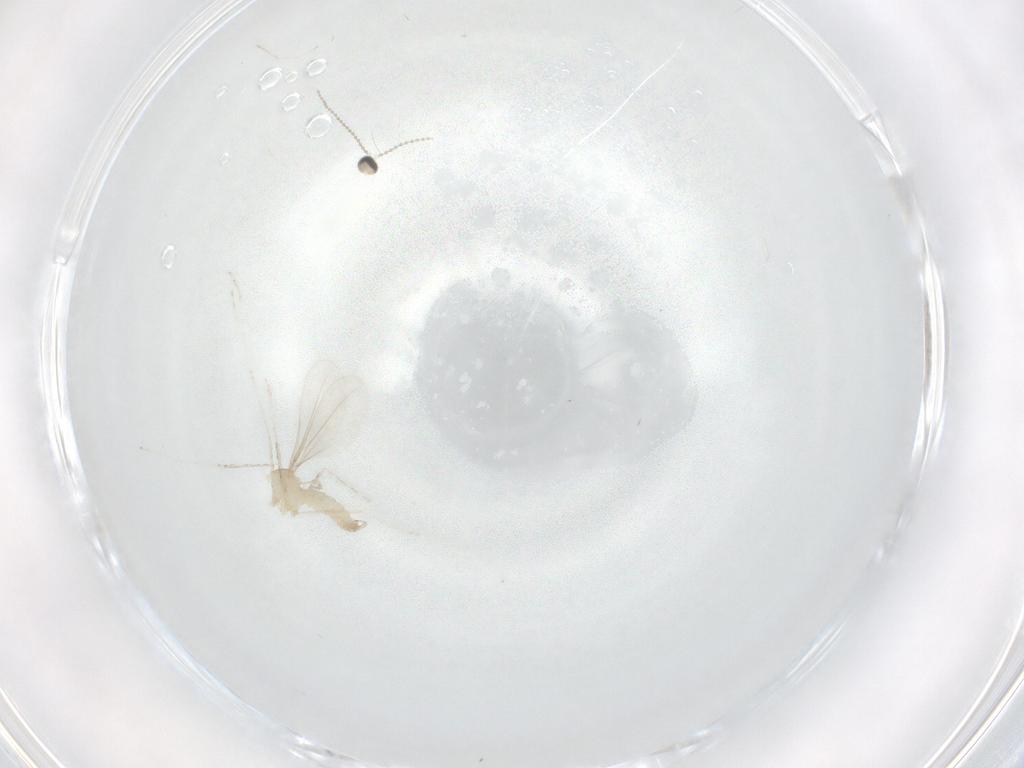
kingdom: Animalia
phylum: Arthropoda
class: Insecta
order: Diptera
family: Cecidomyiidae
